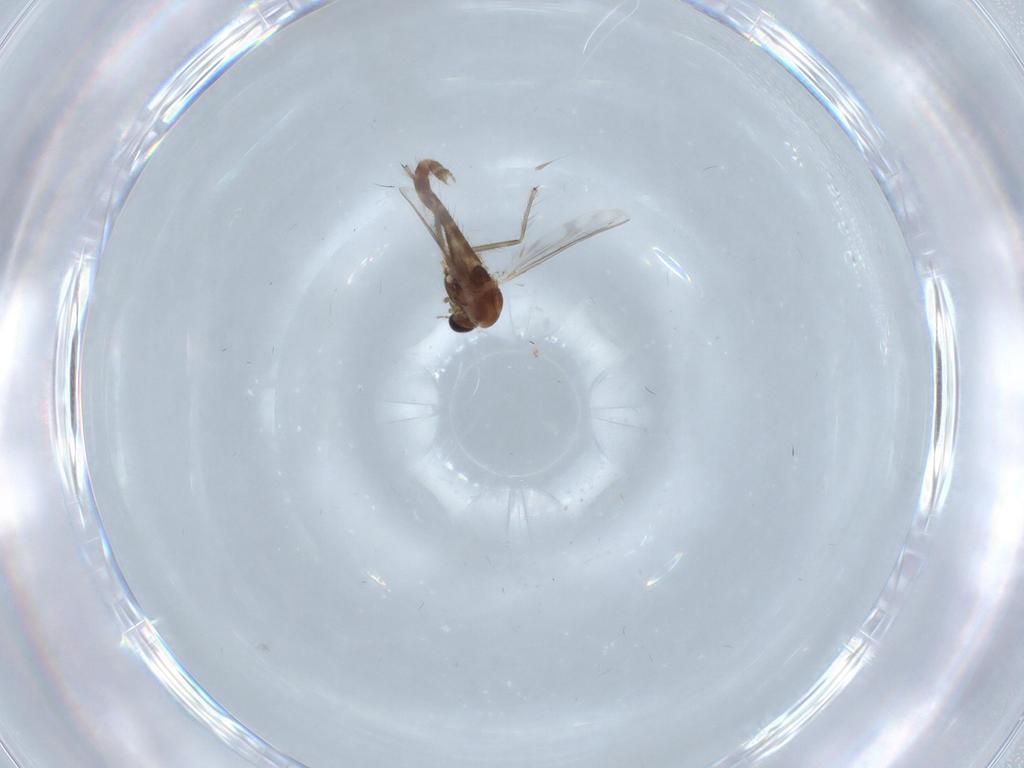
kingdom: Animalia
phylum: Arthropoda
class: Insecta
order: Diptera
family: Chironomidae
